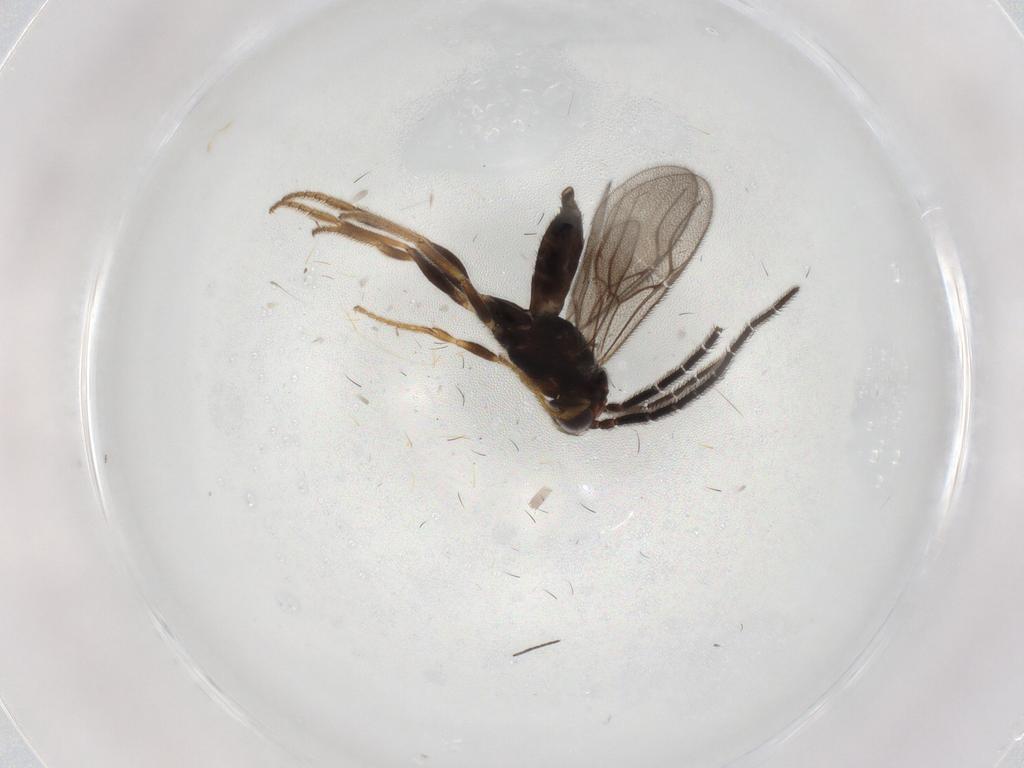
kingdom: Animalia
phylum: Arthropoda
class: Insecta
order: Hymenoptera
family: Dryinidae
